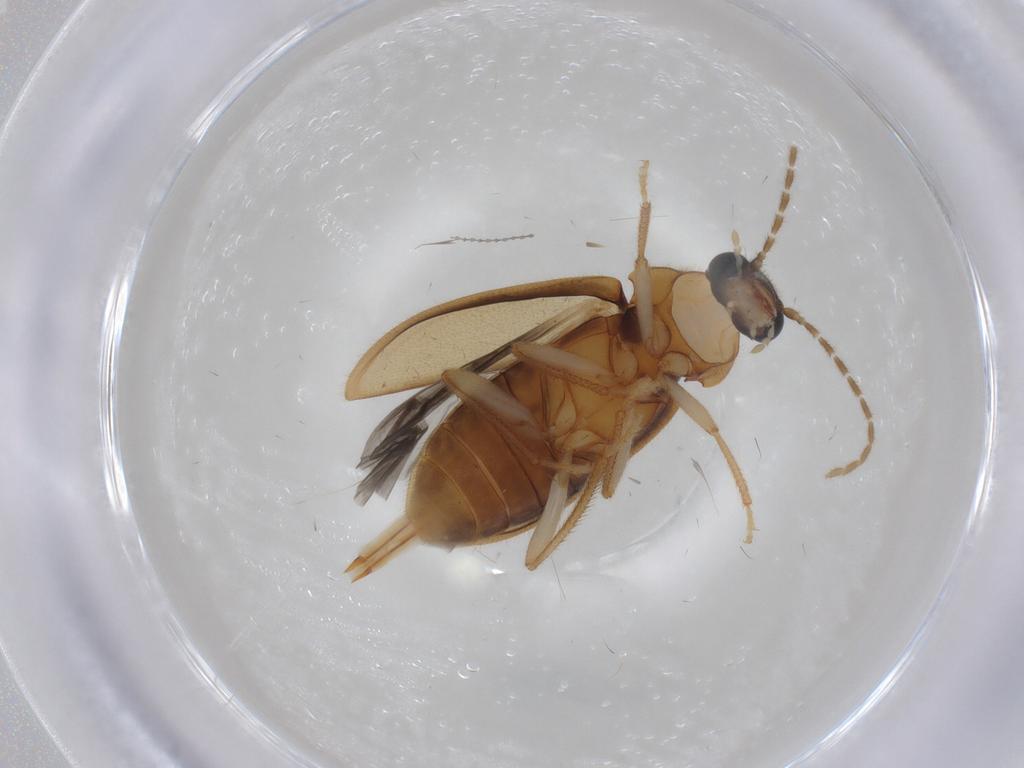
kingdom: Animalia
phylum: Arthropoda
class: Insecta
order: Coleoptera
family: Ptilodactylidae
